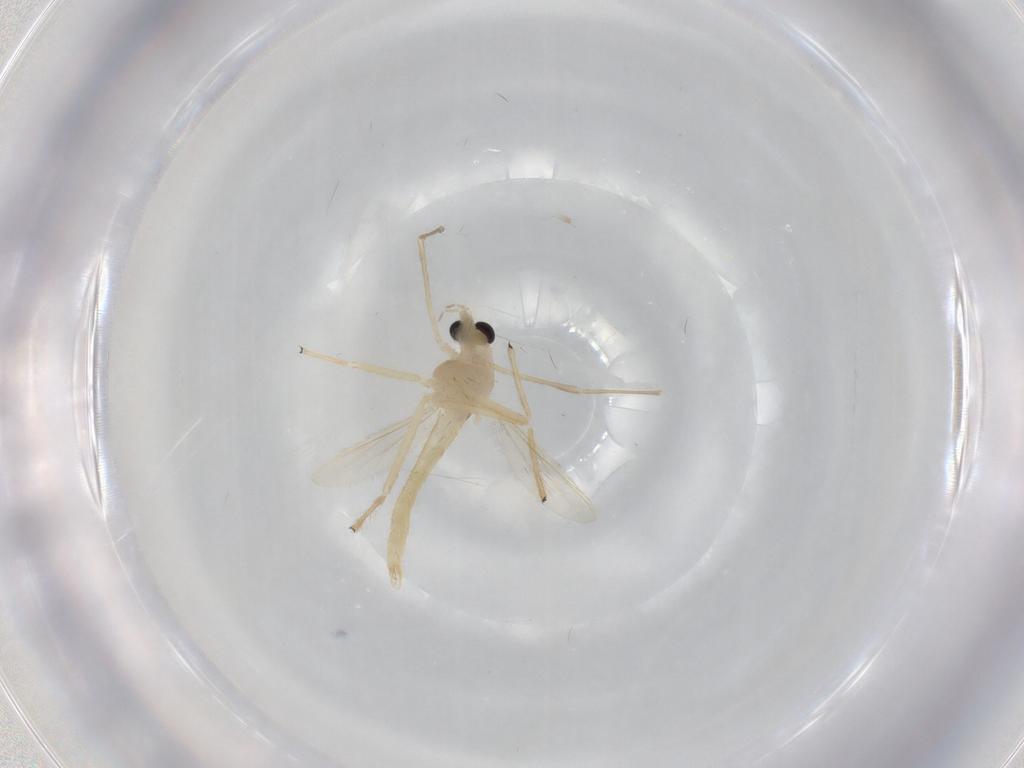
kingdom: Animalia
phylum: Arthropoda
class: Insecta
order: Diptera
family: Chironomidae
